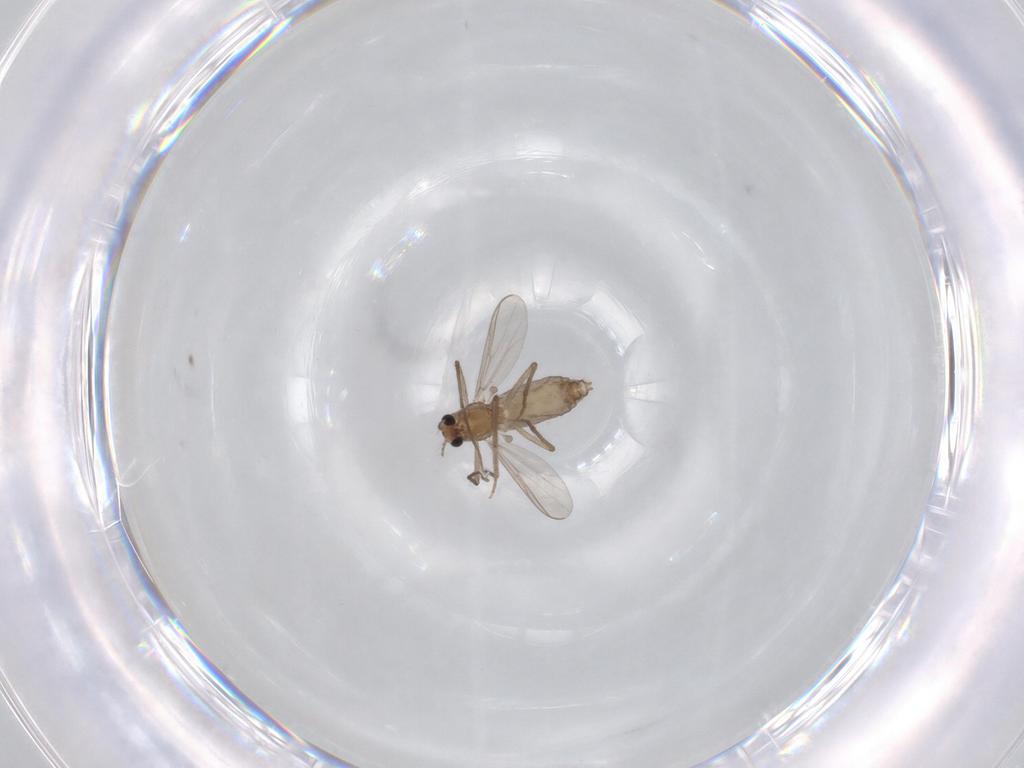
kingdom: Animalia
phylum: Arthropoda
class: Insecta
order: Diptera
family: Chironomidae
